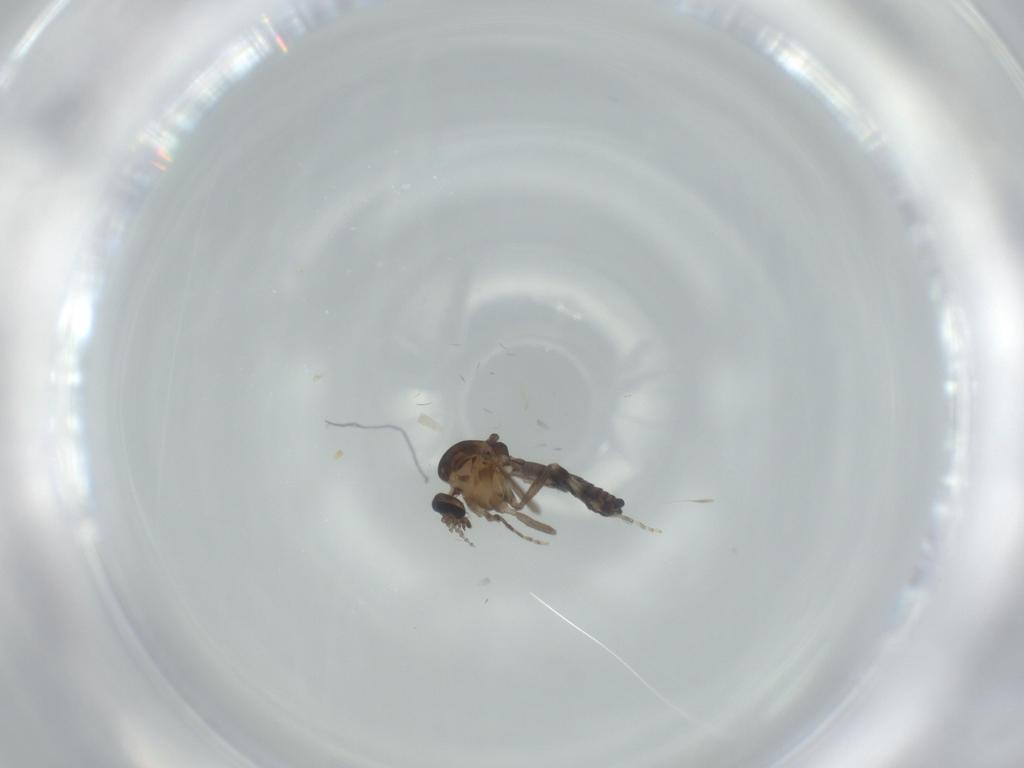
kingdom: Animalia
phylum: Arthropoda
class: Insecta
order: Diptera
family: Ceratopogonidae
